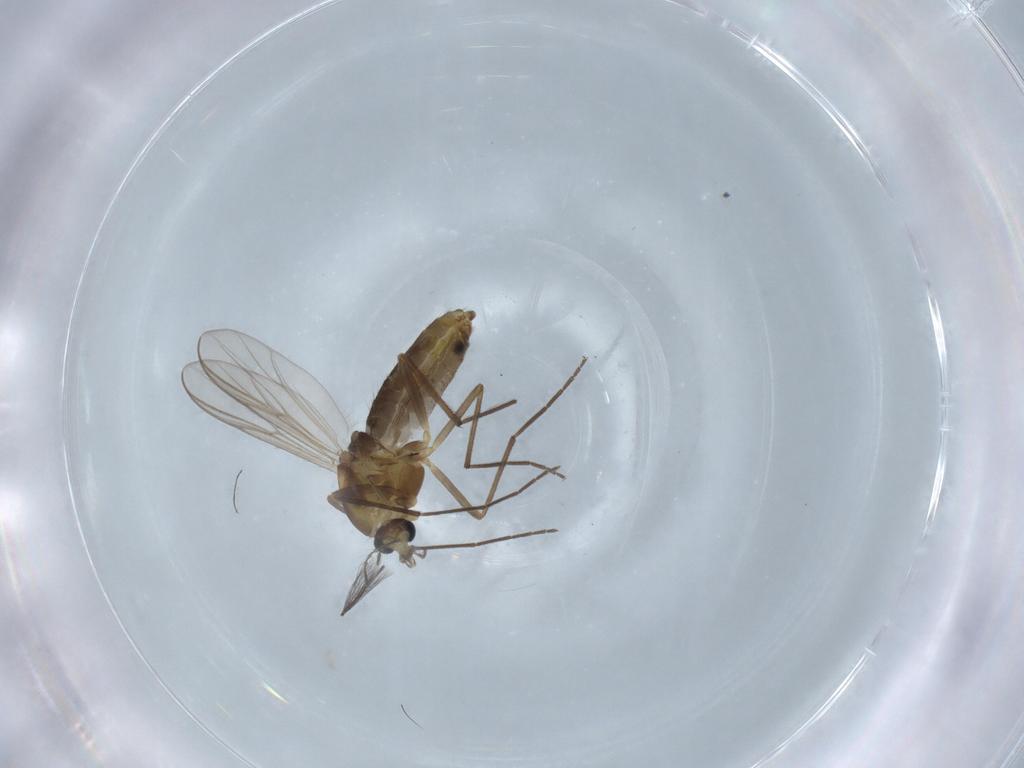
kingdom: Animalia
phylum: Arthropoda
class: Insecta
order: Diptera
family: Chironomidae
